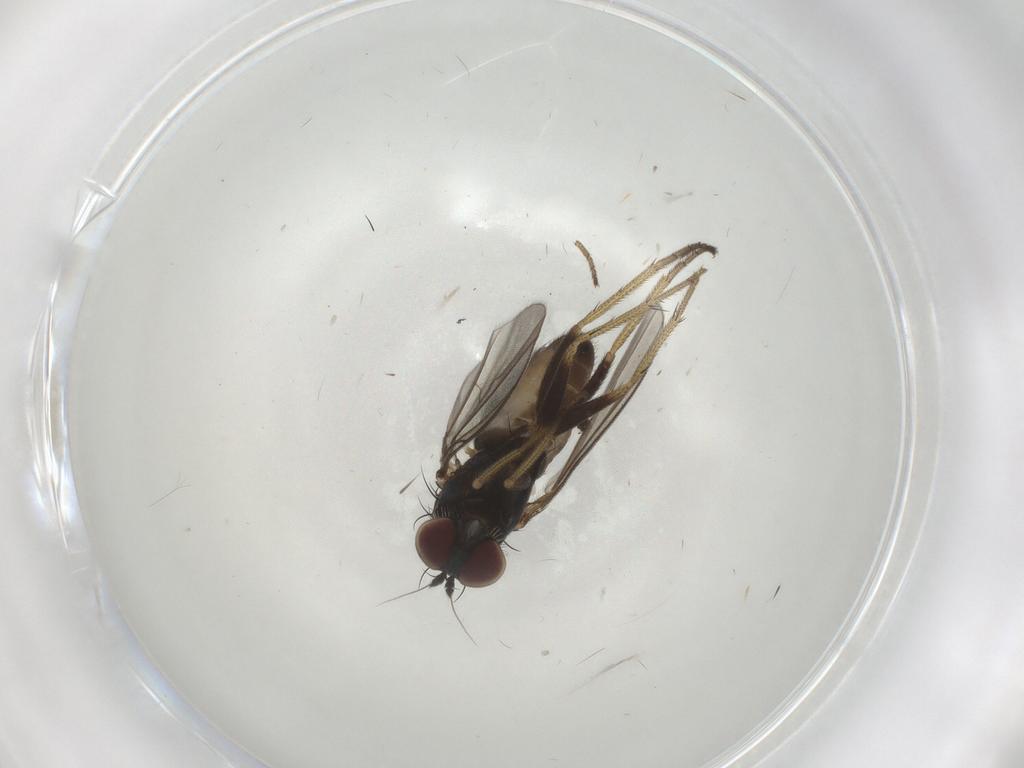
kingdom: Animalia
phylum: Arthropoda
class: Insecta
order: Diptera
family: Dolichopodidae
